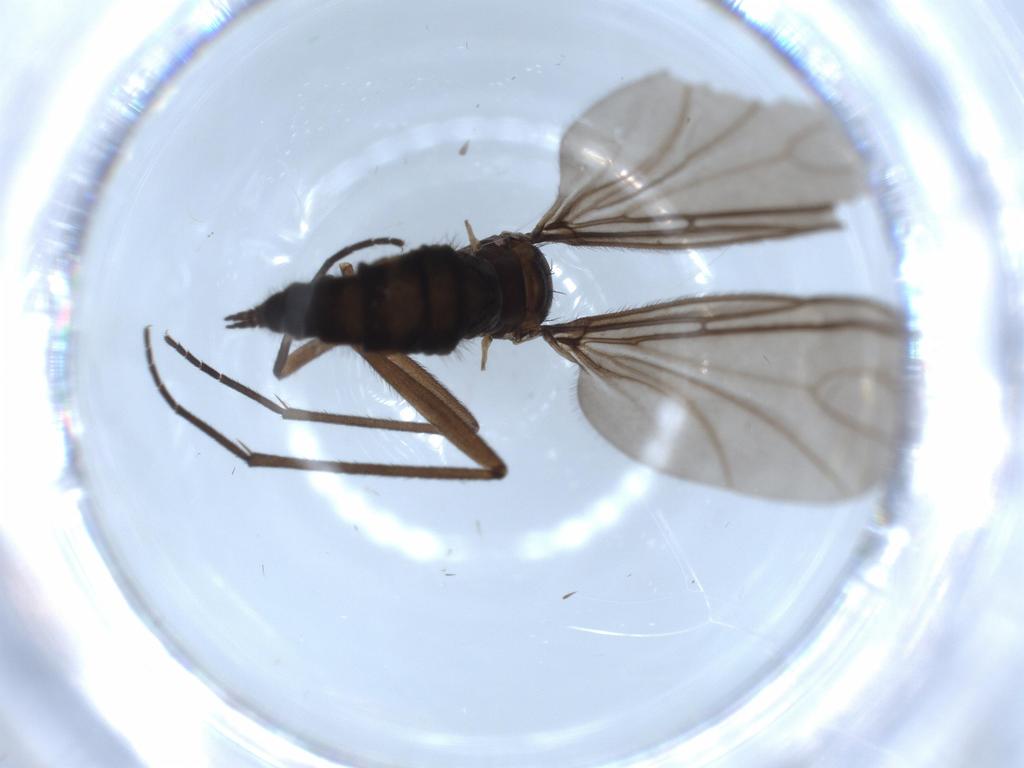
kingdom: Animalia
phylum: Arthropoda
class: Insecta
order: Diptera
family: Sciaridae
